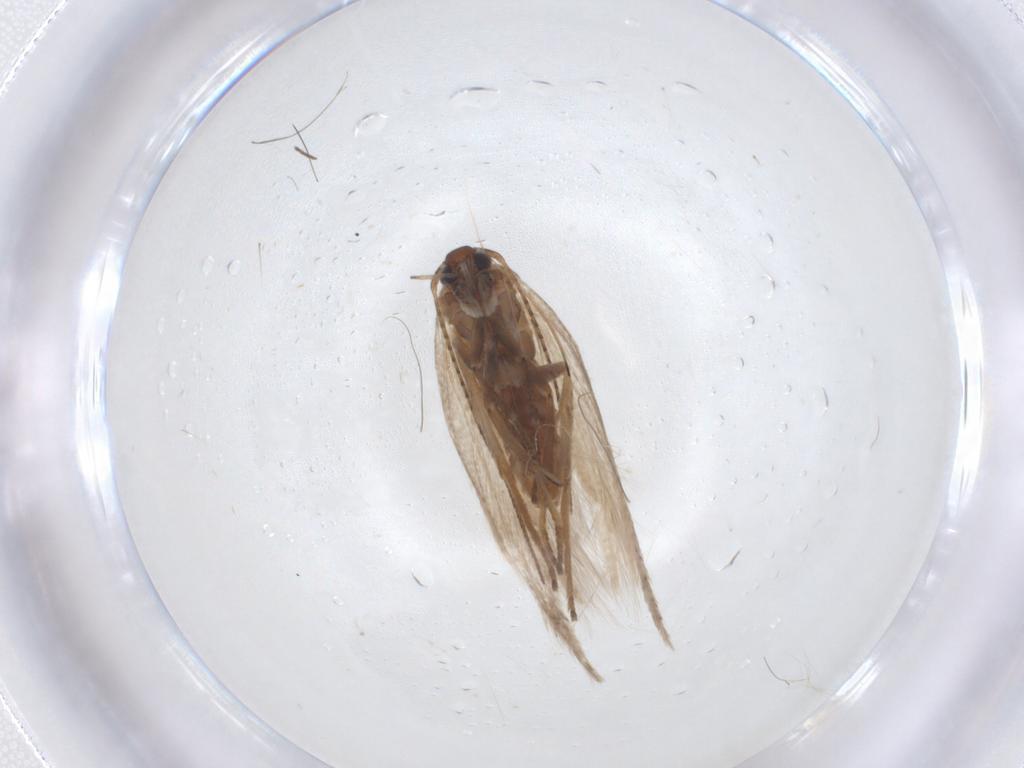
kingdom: Animalia
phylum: Arthropoda
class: Insecta
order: Lepidoptera
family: Gelechiidae
